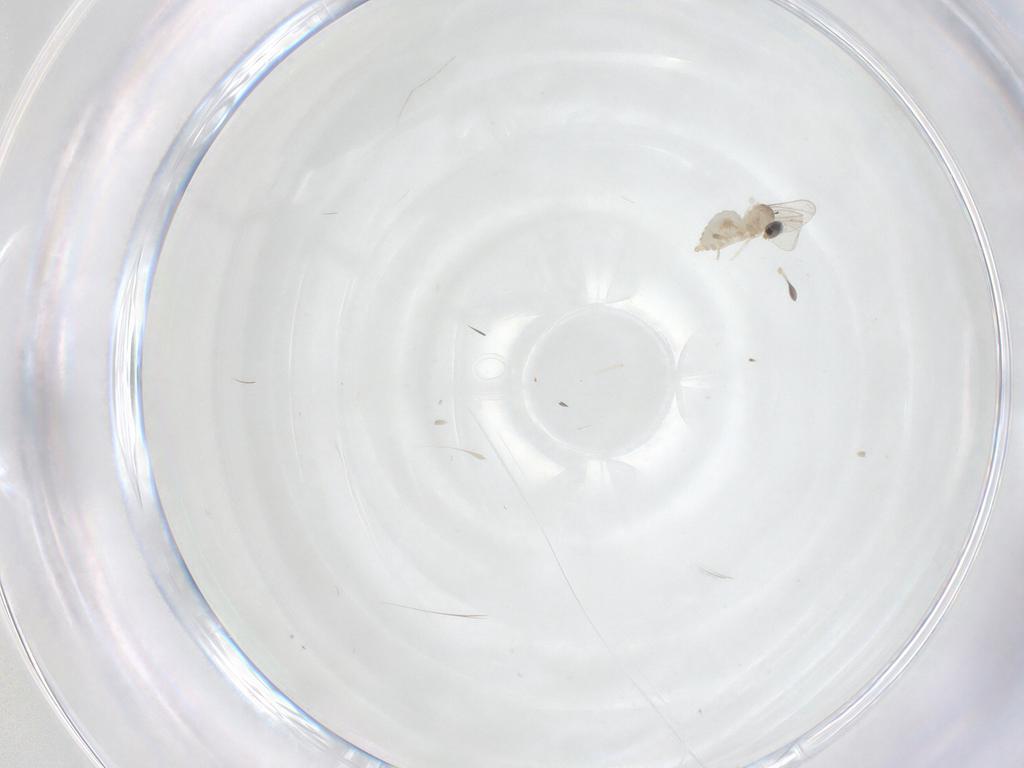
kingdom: Animalia
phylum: Arthropoda
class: Insecta
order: Diptera
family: Cecidomyiidae
